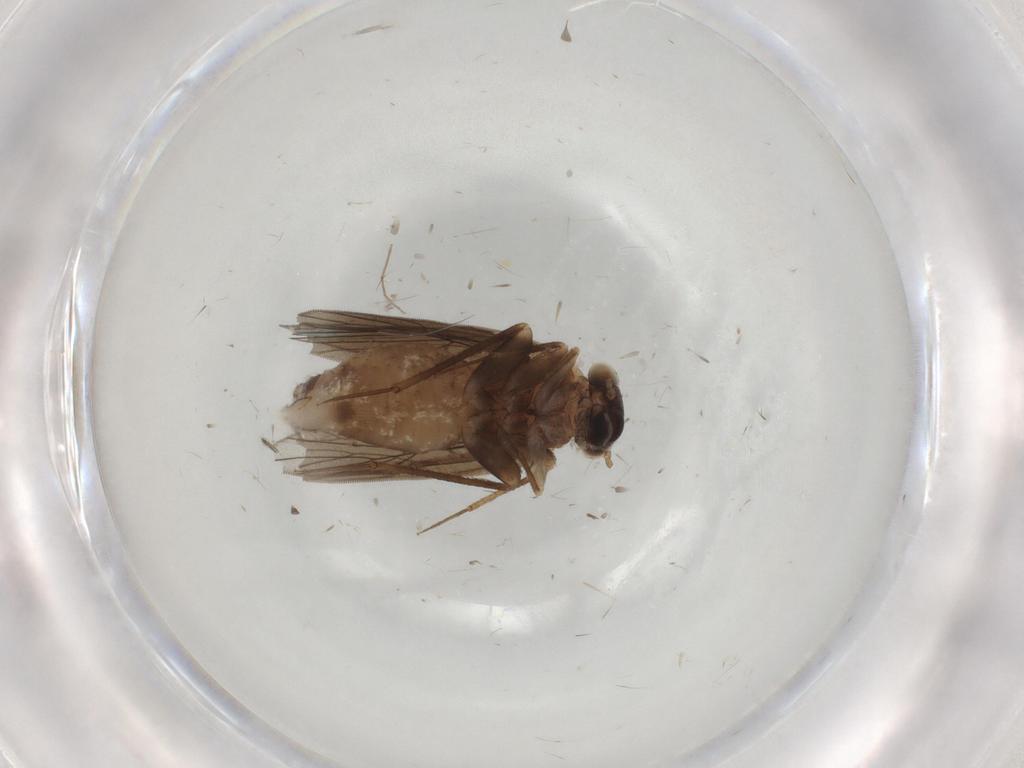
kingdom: Animalia
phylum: Arthropoda
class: Insecta
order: Psocodea
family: Lepidopsocidae
